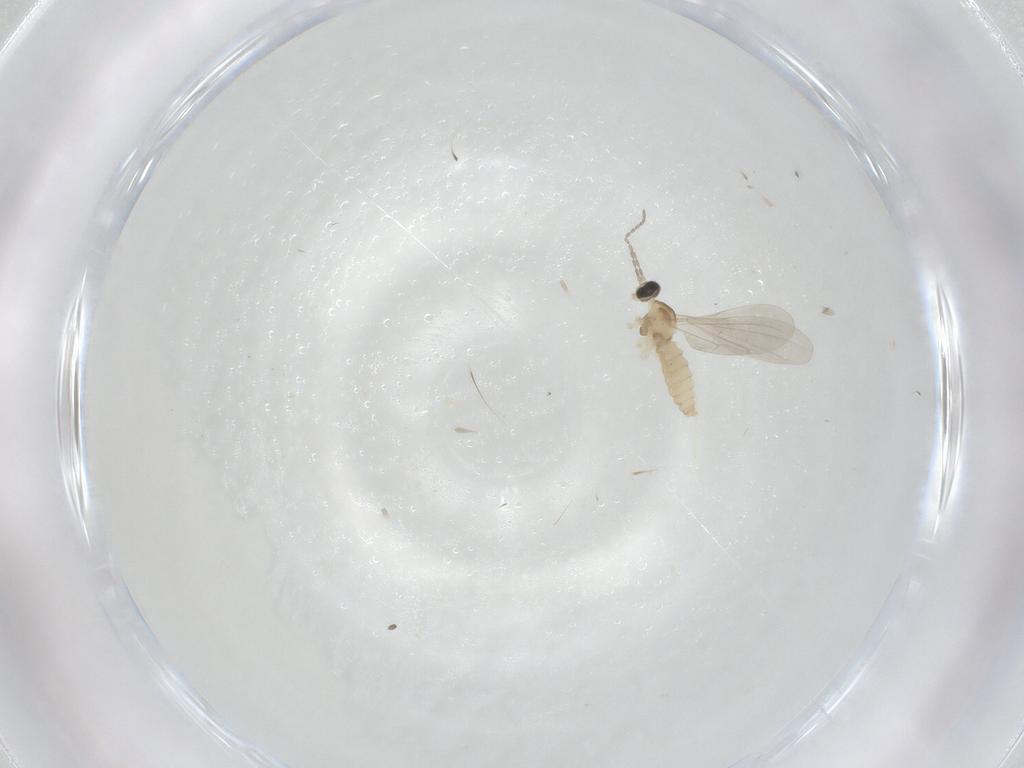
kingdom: Animalia
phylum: Arthropoda
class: Insecta
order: Diptera
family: Cecidomyiidae
